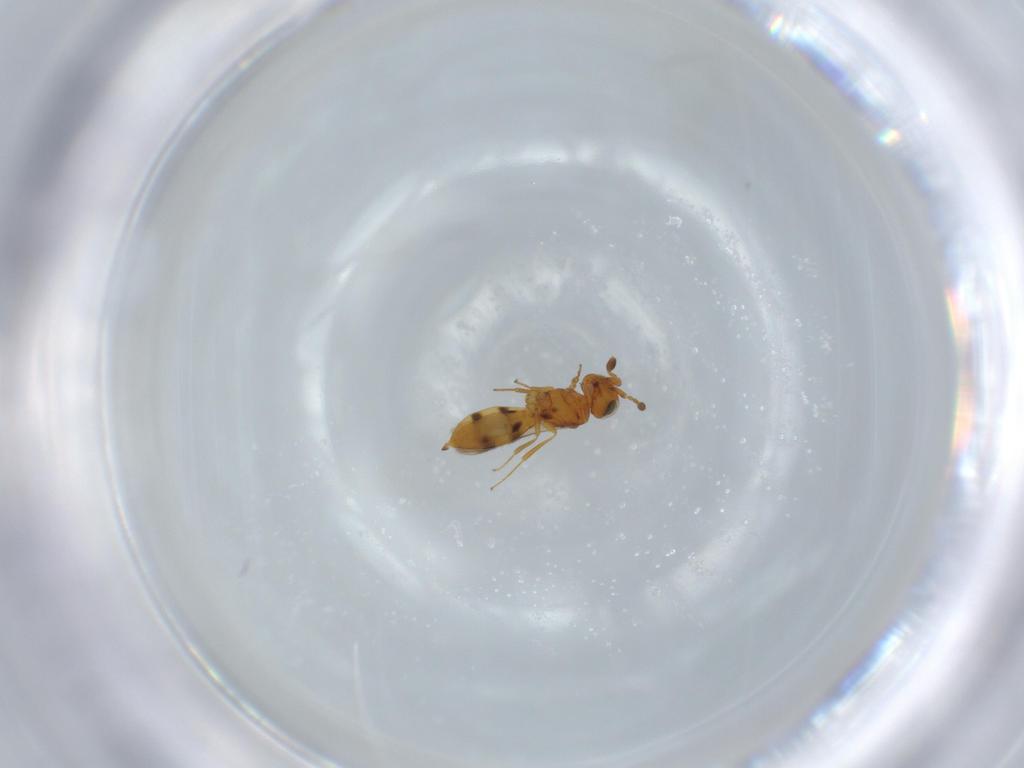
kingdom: Animalia
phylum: Arthropoda
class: Insecta
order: Hymenoptera
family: Scelionidae
